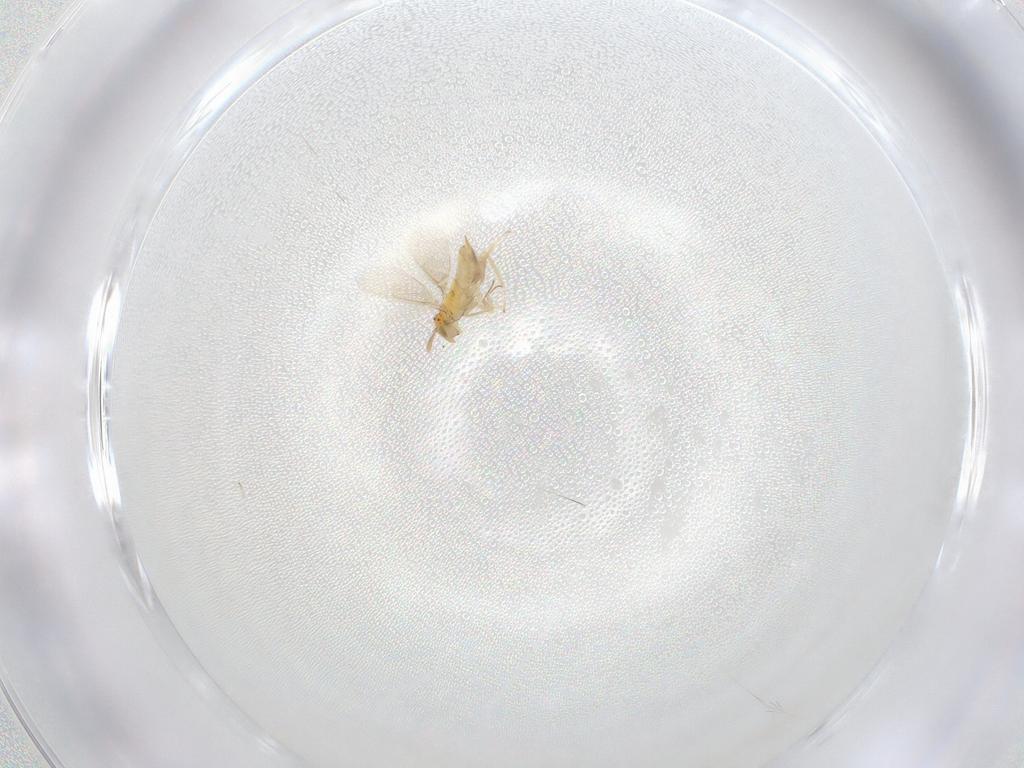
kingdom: Animalia
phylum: Arthropoda
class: Insecta
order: Hymenoptera
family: Aphelinidae
